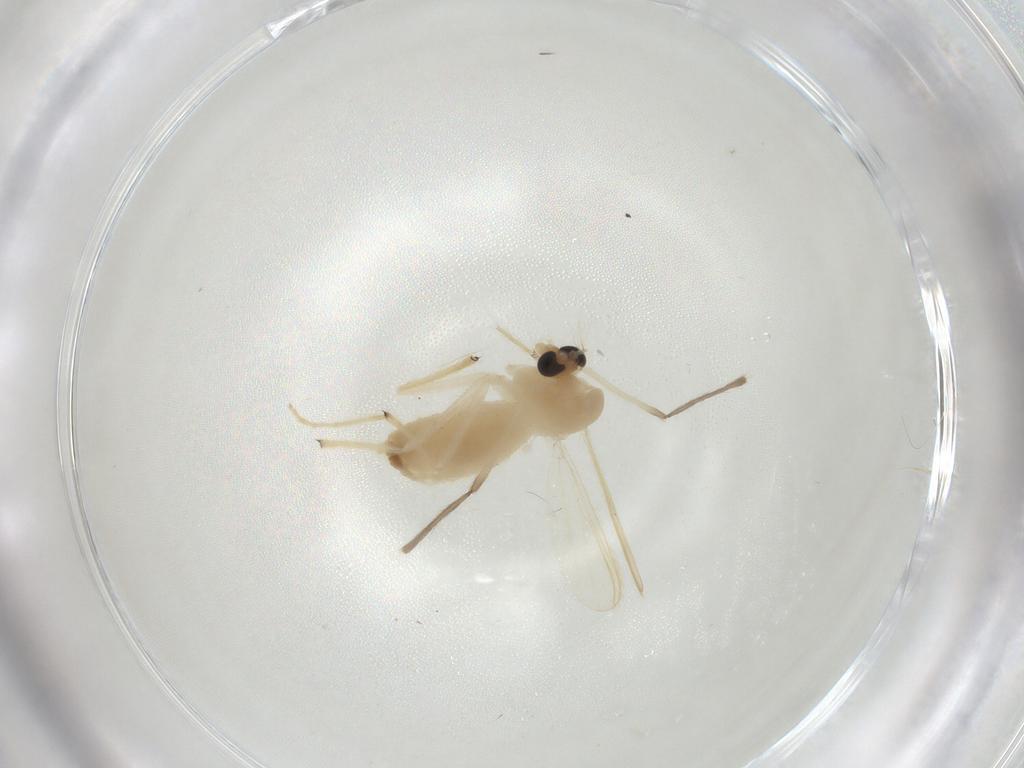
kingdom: Animalia
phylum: Arthropoda
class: Insecta
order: Diptera
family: Chironomidae
